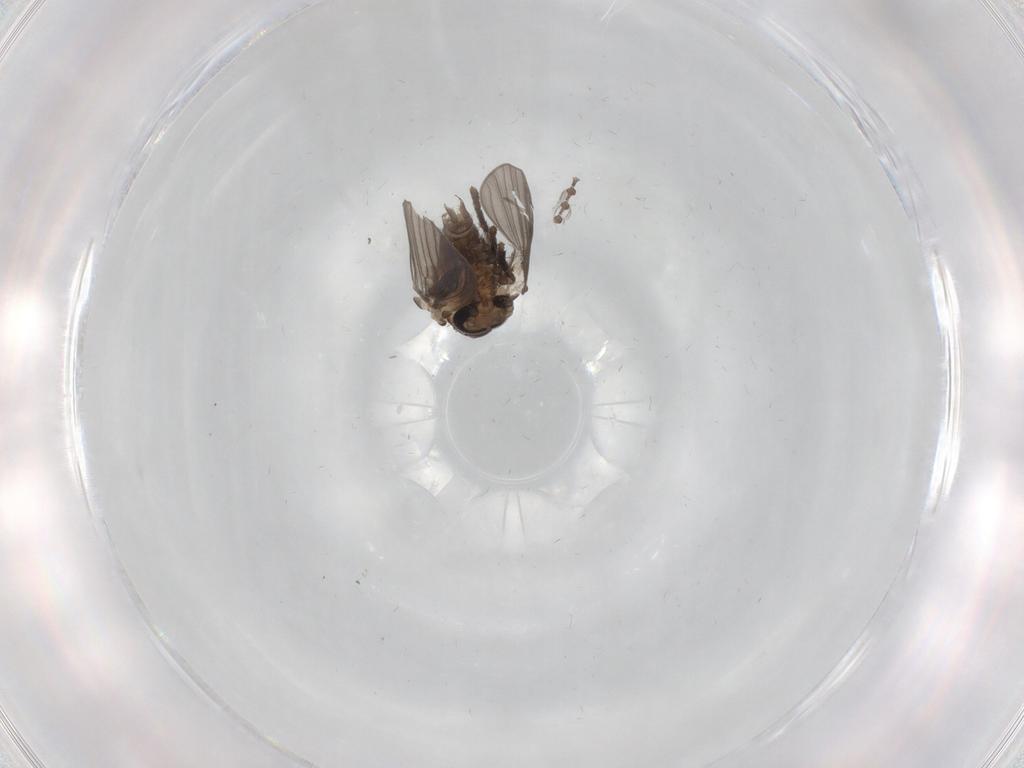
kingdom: Animalia
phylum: Arthropoda
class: Insecta
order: Diptera
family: Psychodidae
